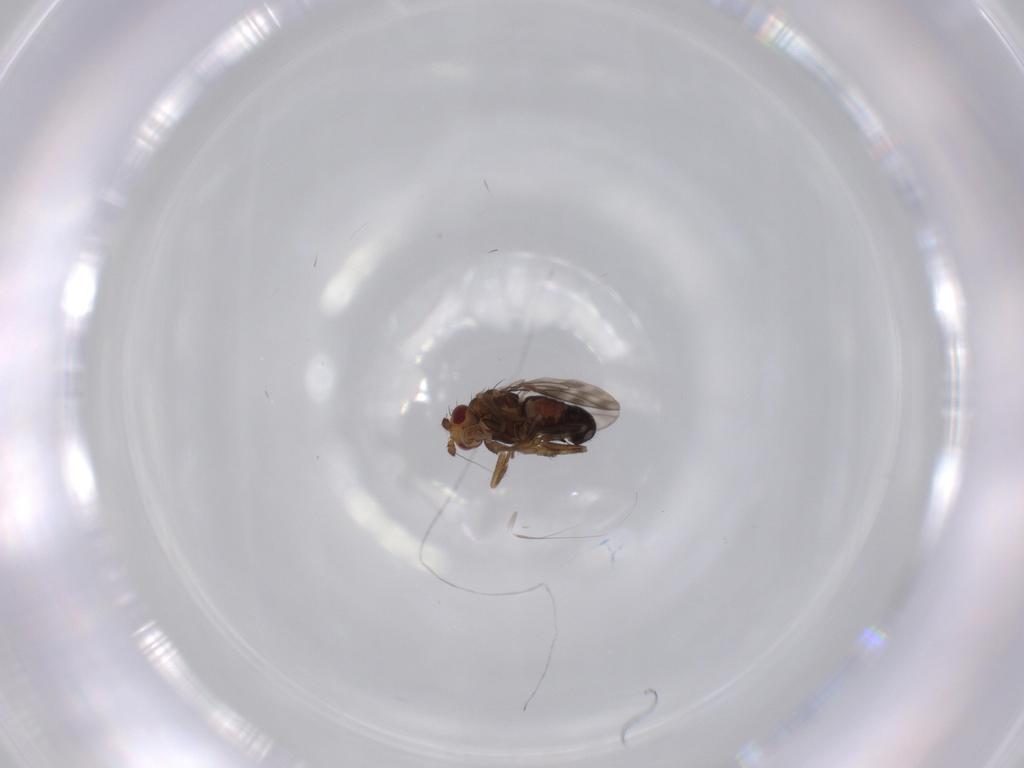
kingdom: Animalia
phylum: Arthropoda
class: Insecta
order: Diptera
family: Sphaeroceridae
